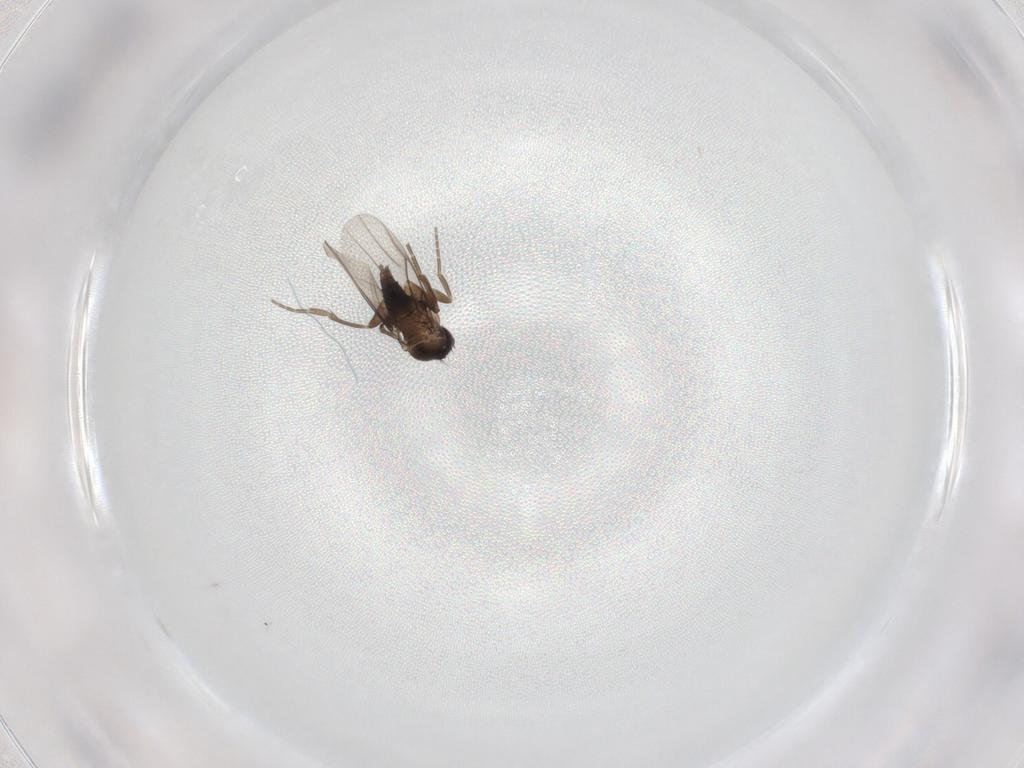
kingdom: Animalia
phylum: Arthropoda
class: Insecta
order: Diptera
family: Phoridae
